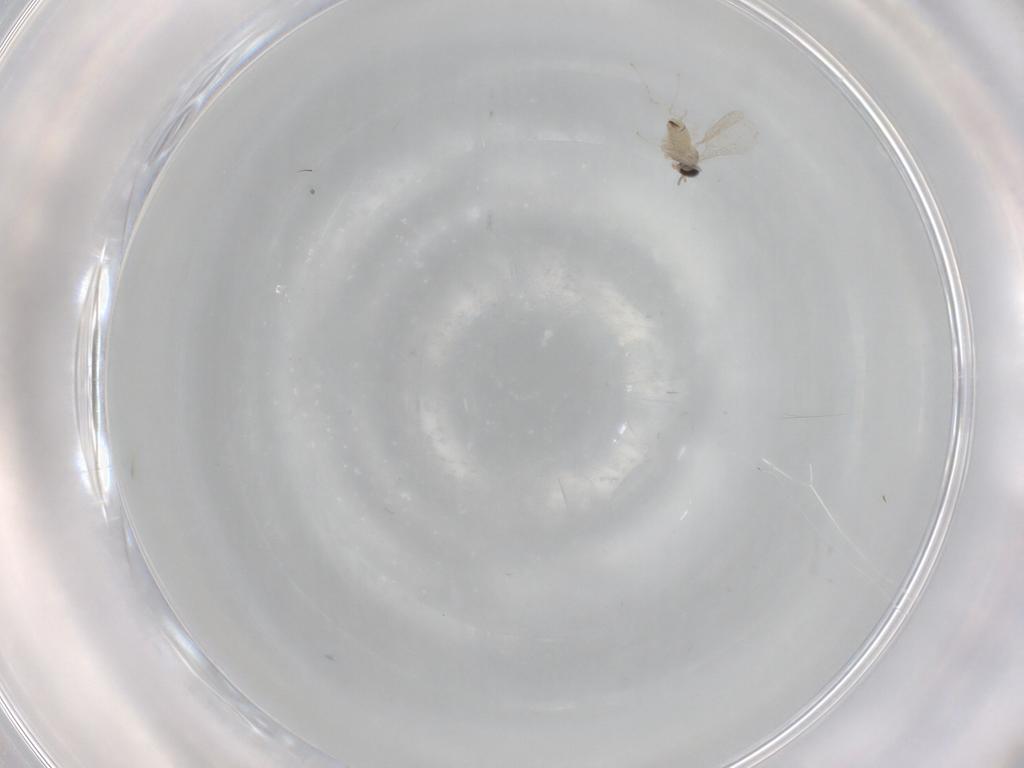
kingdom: Animalia
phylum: Arthropoda
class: Insecta
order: Diptera
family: Cecidomyiidae
